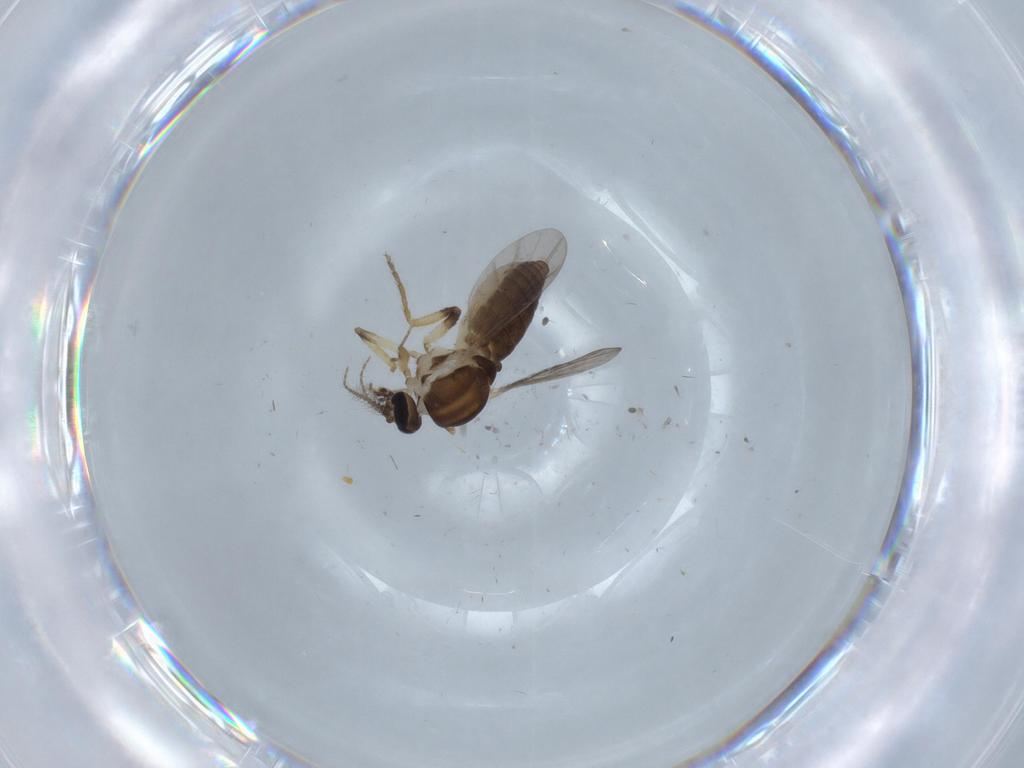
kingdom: Animalia
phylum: Arthropoda
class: Insecta
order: Diptera
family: Ceratopogonidae
